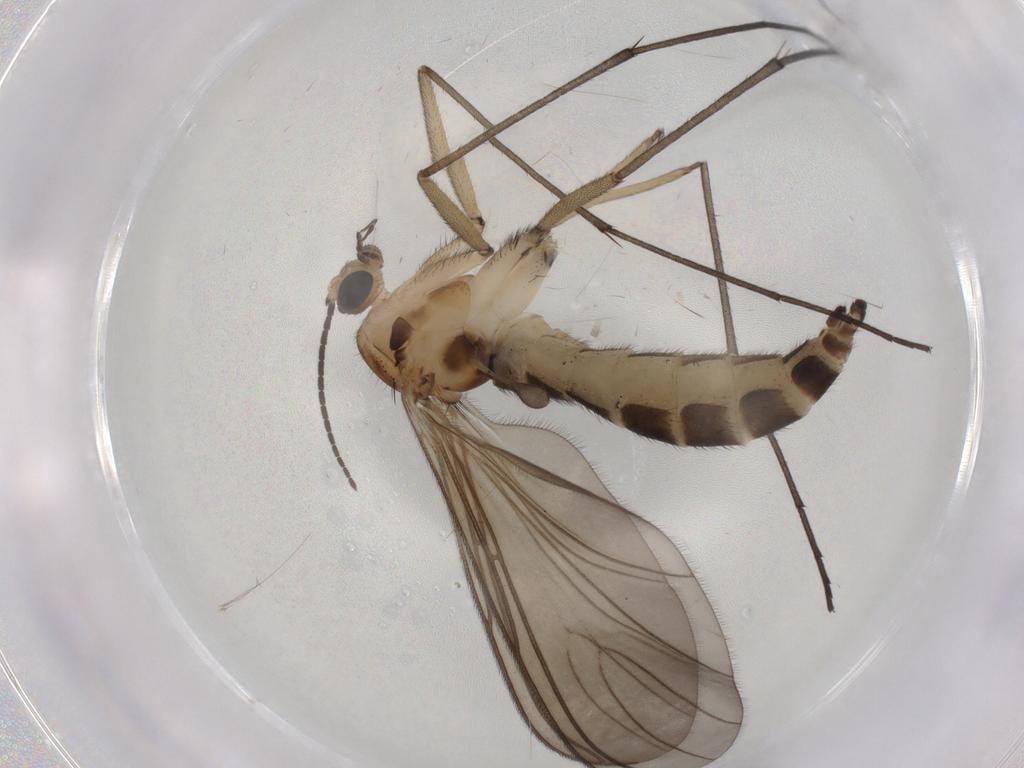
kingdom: Animalia
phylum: Arthropoda
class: Insecta
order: Diptera
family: Sciaridae
